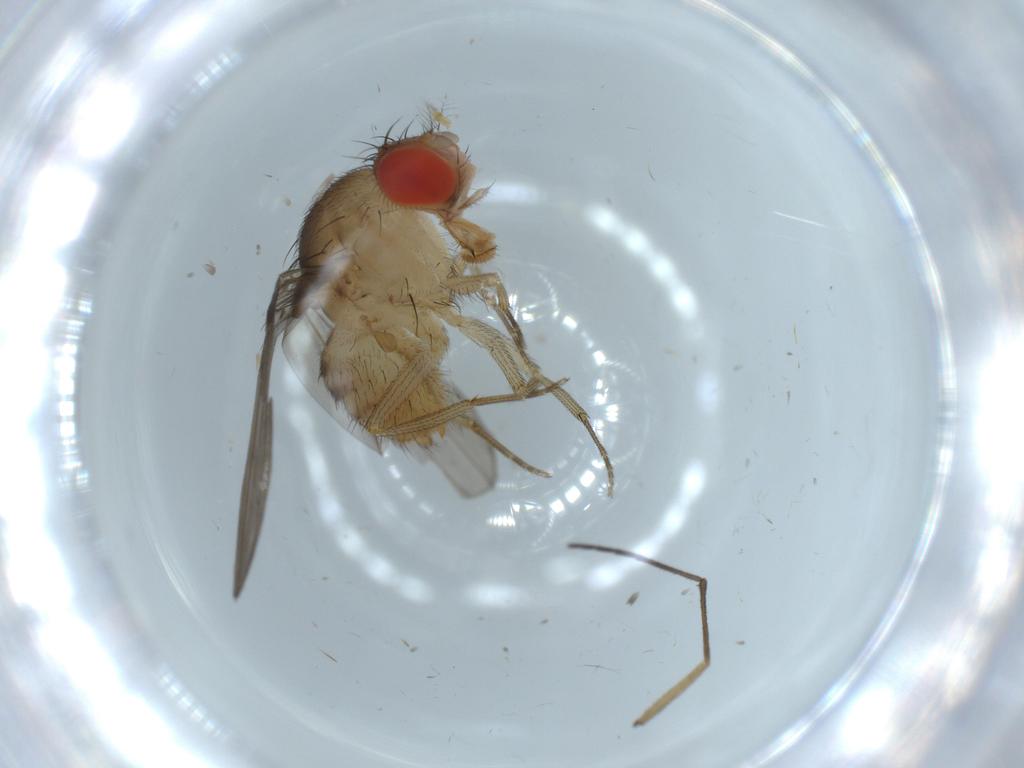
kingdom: Animalia
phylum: Arthropoda
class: Insecta
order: Diptera
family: Drosophilidae
